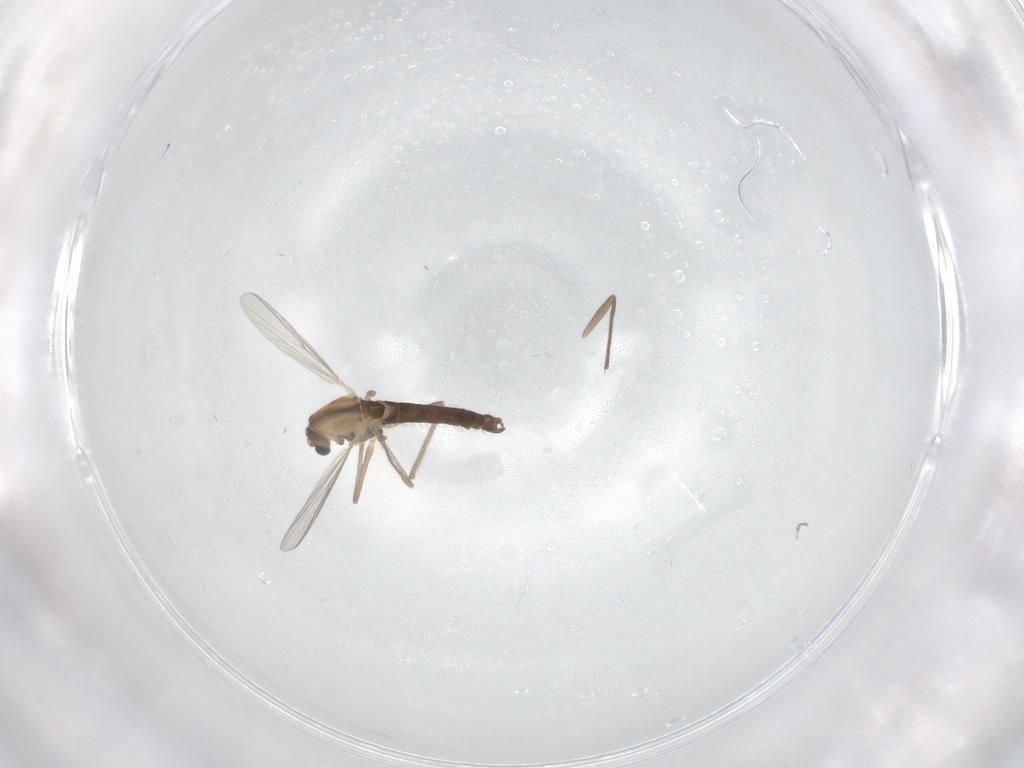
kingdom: Animalia
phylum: Arthropoda
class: Insecta
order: Diptera
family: Chironomidae
